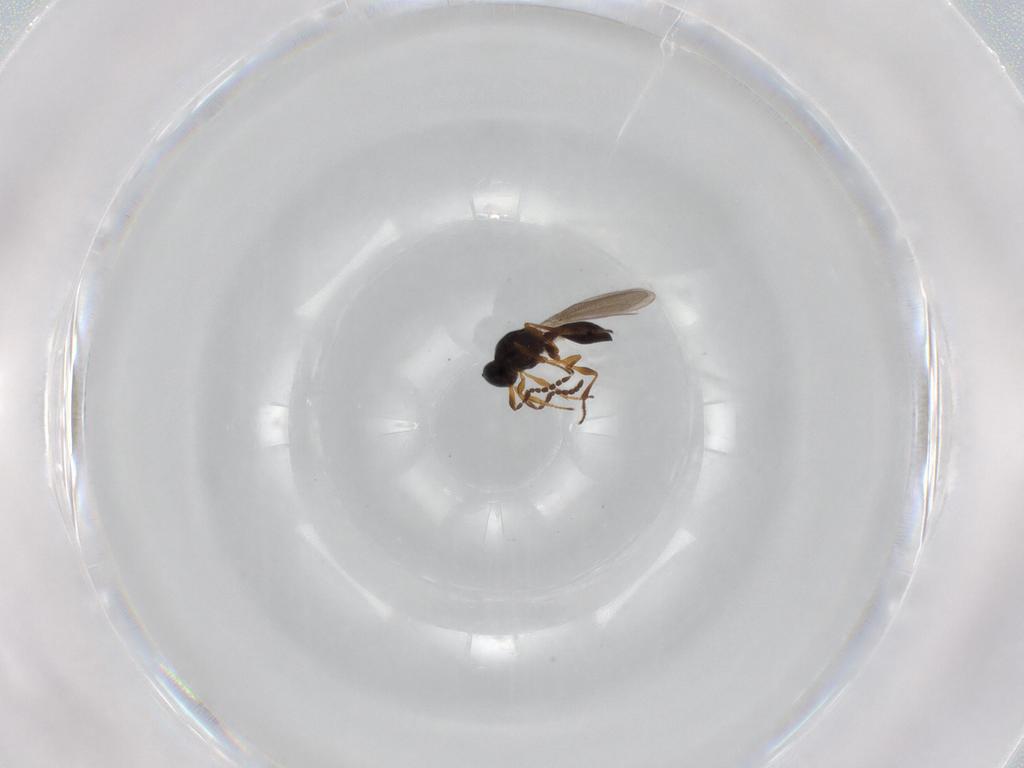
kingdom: Animalia
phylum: Arthropoda
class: Insecta
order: Hymenoptera
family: Platygastridae
